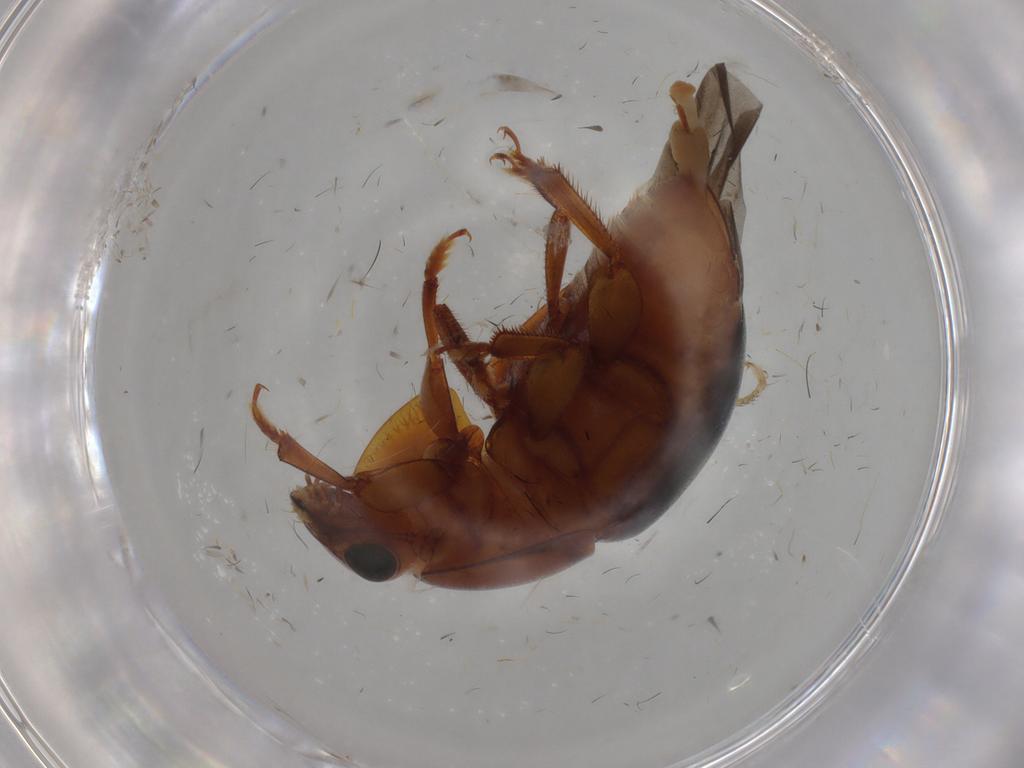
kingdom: Animalia
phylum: Arthropoda
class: Insecta
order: Coleoptera
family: Nitidulidae
